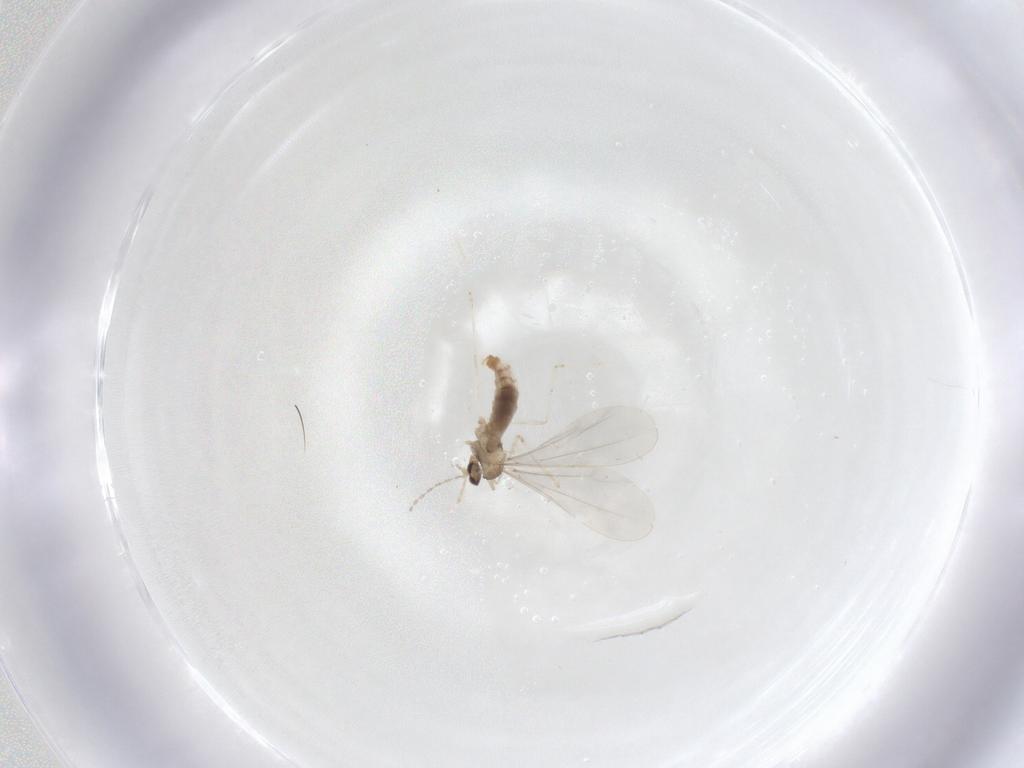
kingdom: Animalia
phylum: Arthropoda
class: Insecta
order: Diptera
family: Cecidomyiidae
